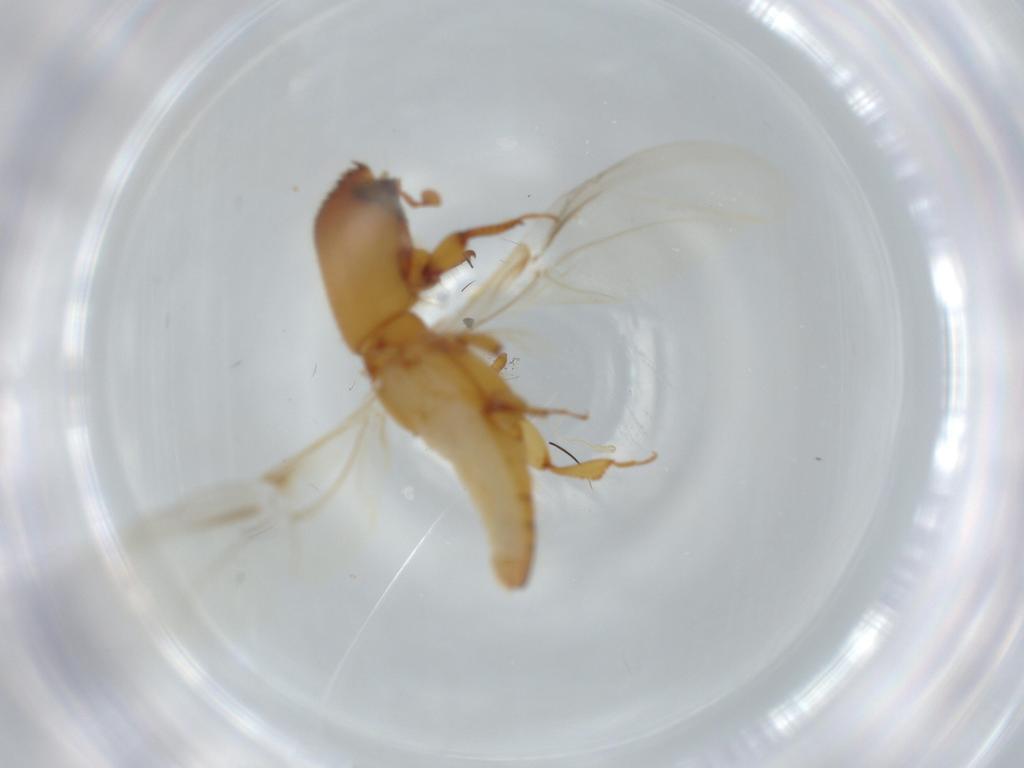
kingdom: Animalia
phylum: Arthropoda
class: Insecta
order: Coleoptera
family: Curculionidae
